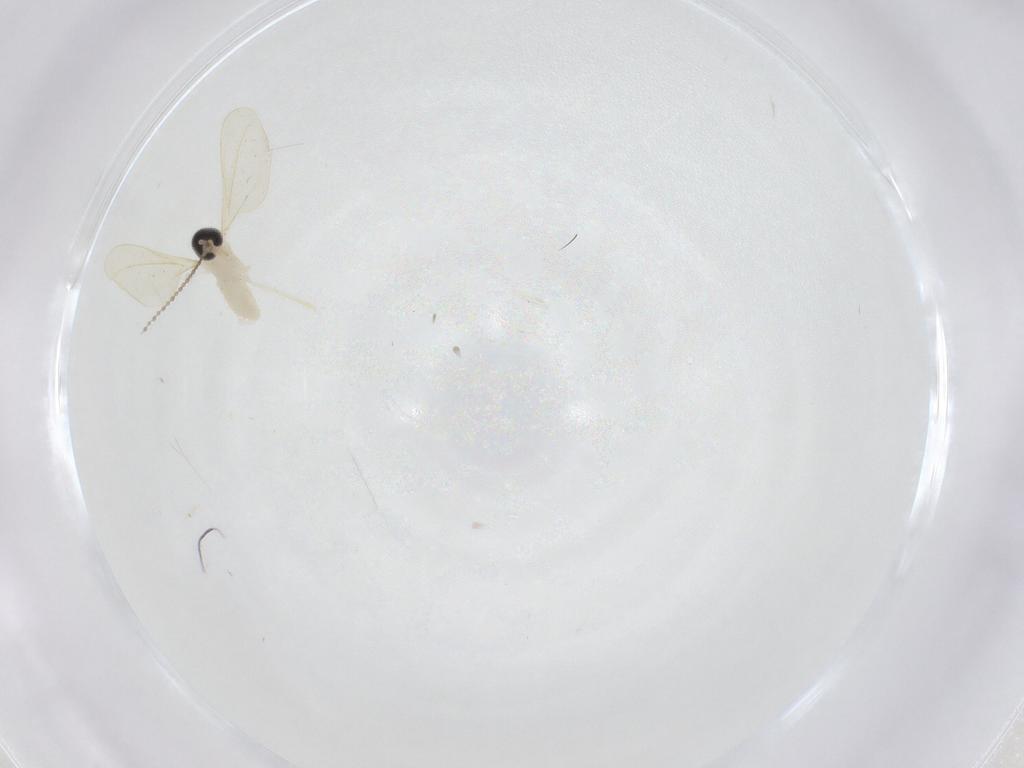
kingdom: Animalia
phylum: Arthropoda
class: Insecta
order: Diptera
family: Cecidomyiidae
